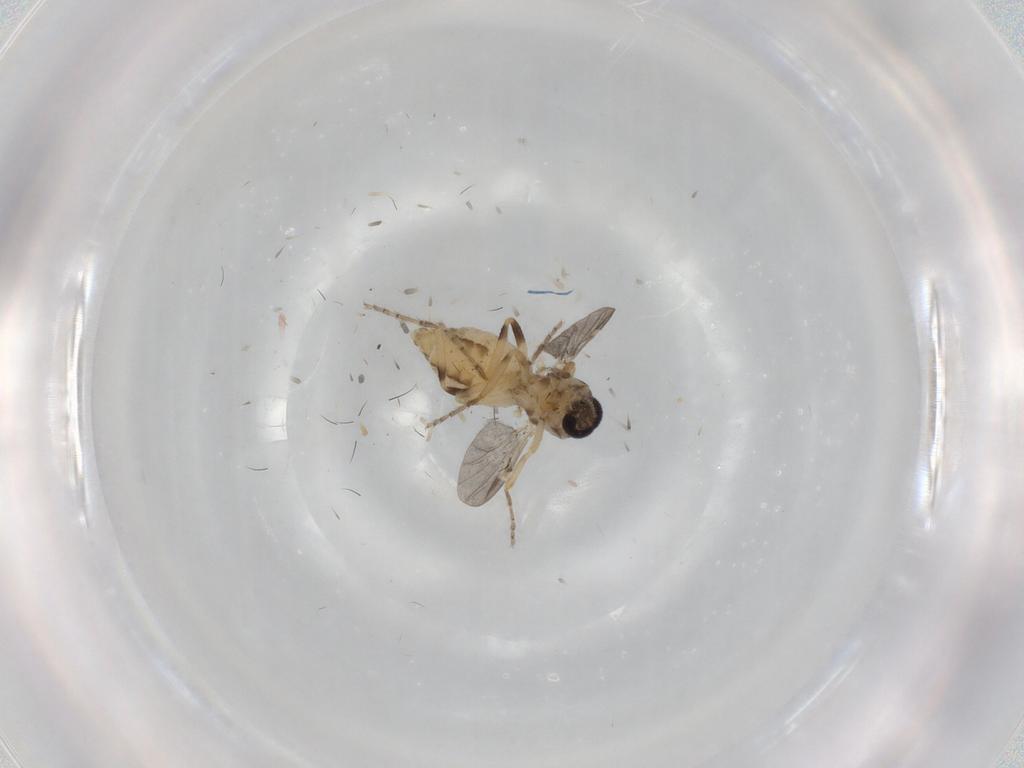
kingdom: Animalia
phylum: Arthropoda
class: Insecta
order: Diptera
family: Ceratopogonidae
